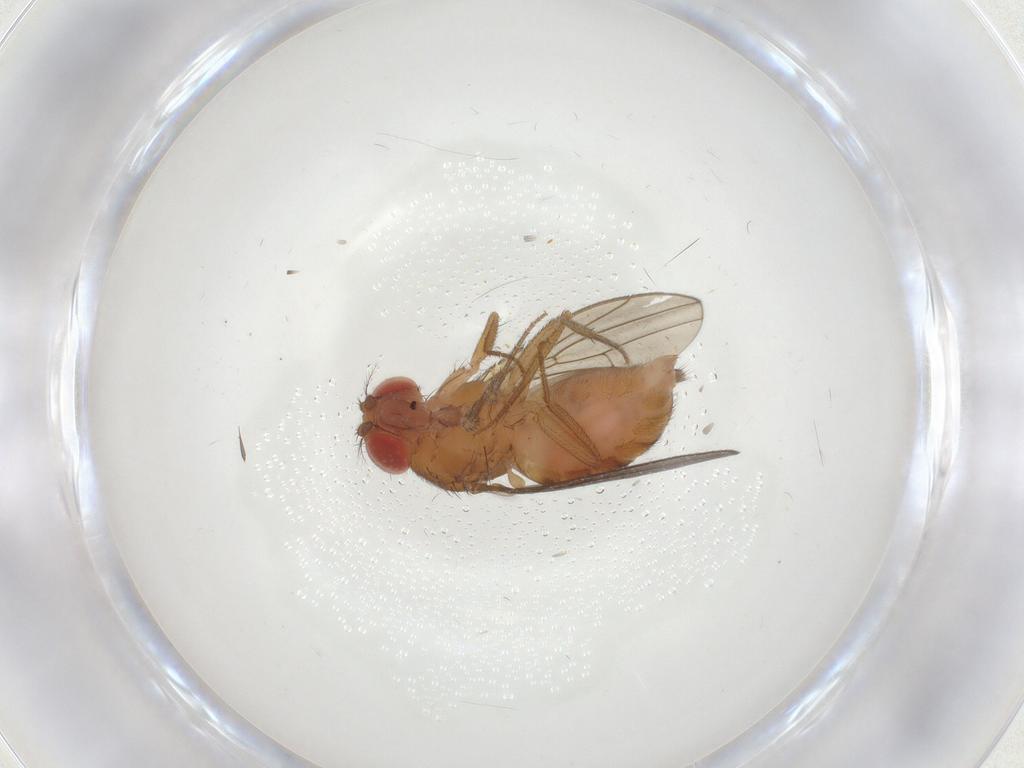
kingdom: Animalia
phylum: Arthropoda
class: Insecta
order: Diptera
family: Drosophilidae
